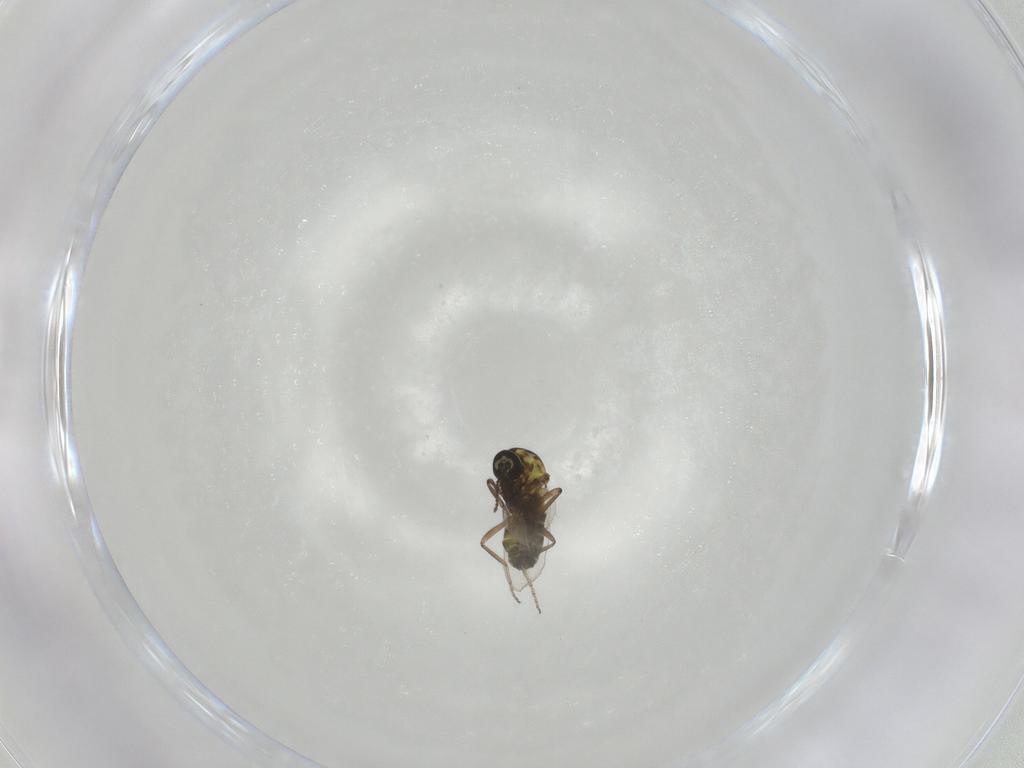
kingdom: Animalia
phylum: Arthropoda
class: Insecta
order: Diptera
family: Ceratopogonidae
